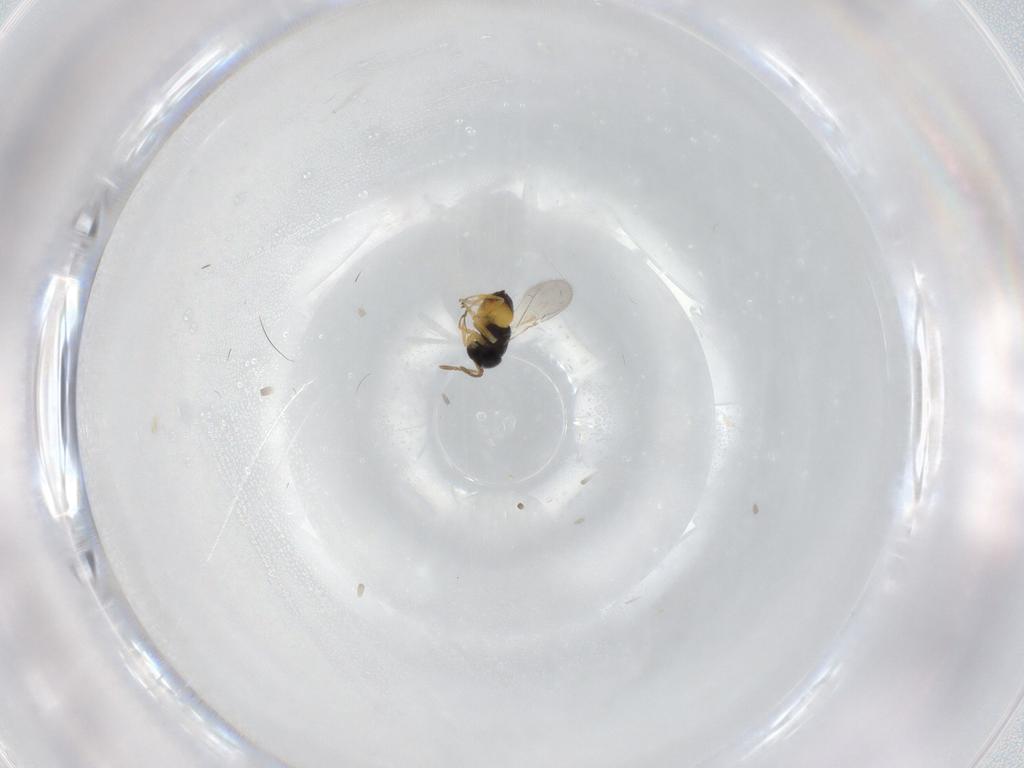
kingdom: Animalia
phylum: Arthropoda
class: Insecta
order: Hymenoptera
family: Encyrtidae
